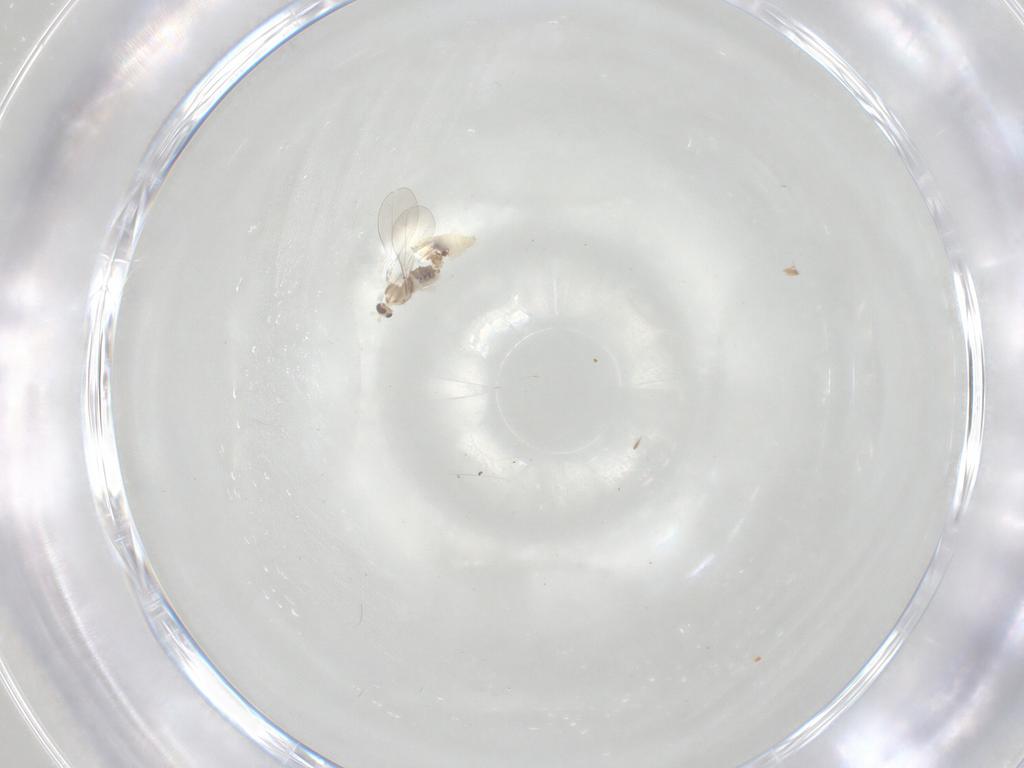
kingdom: Animalia
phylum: Arthropoda
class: Insecta
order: Diptera
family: Cecidomyiidae
